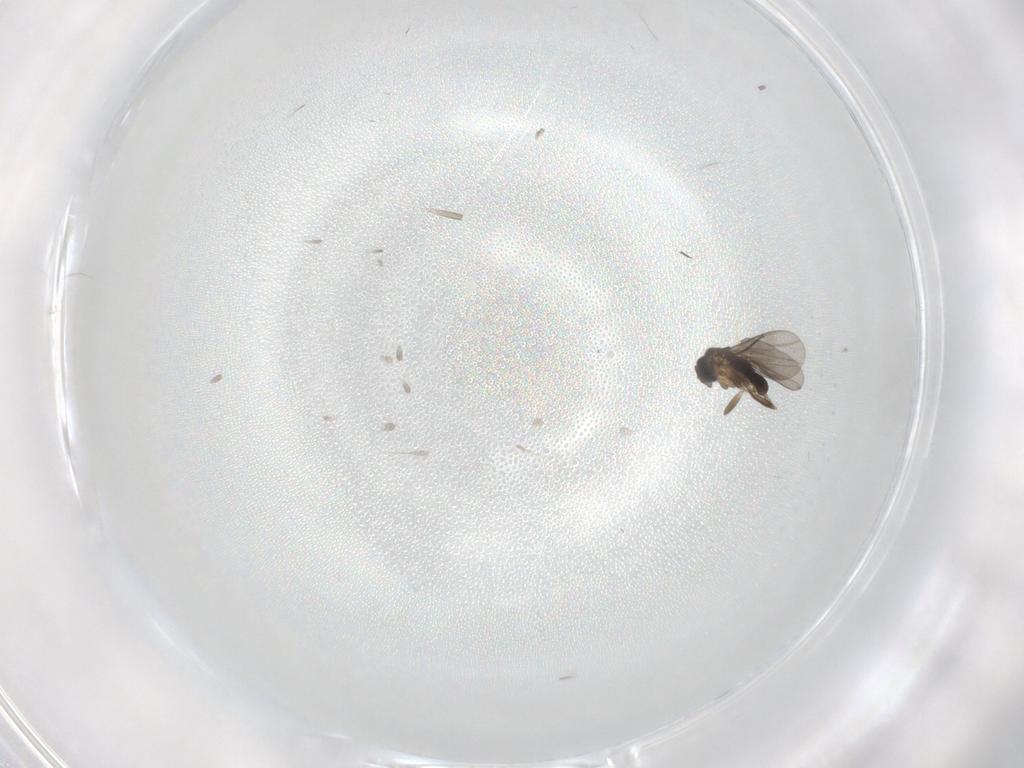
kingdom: Animalia
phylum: Arthropoda
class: Insecta
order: Diptera
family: Phoridae
